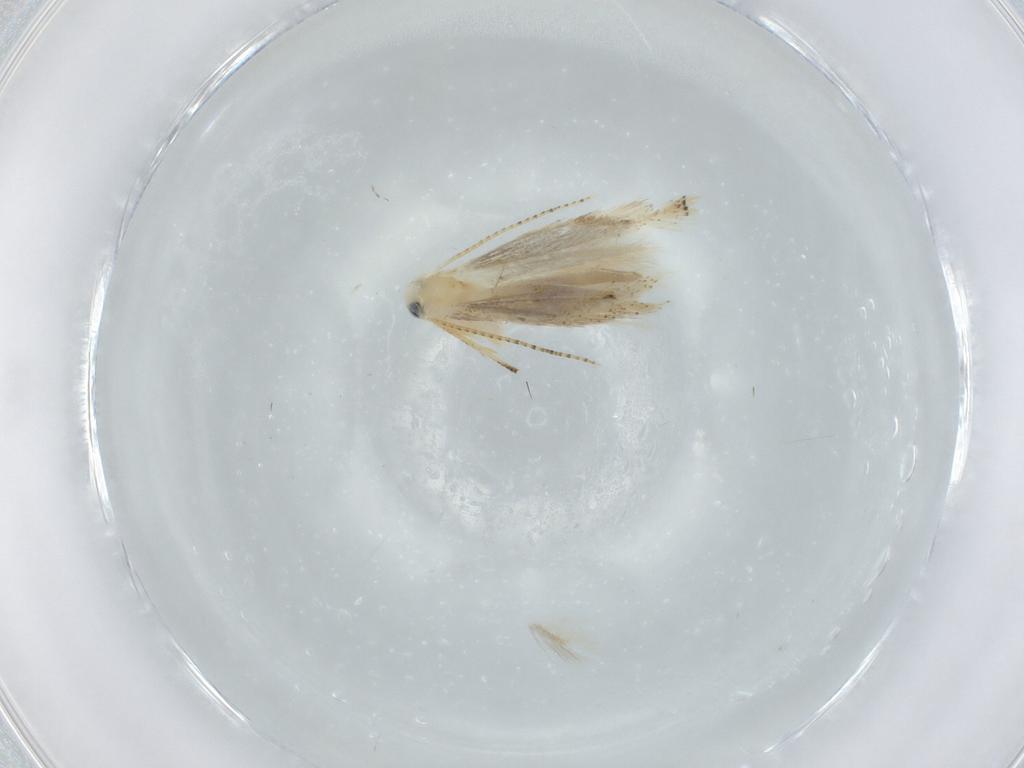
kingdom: Animalia
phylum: Arthropoda
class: Insecta
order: Lepidoptera
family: Bucculatricidae
